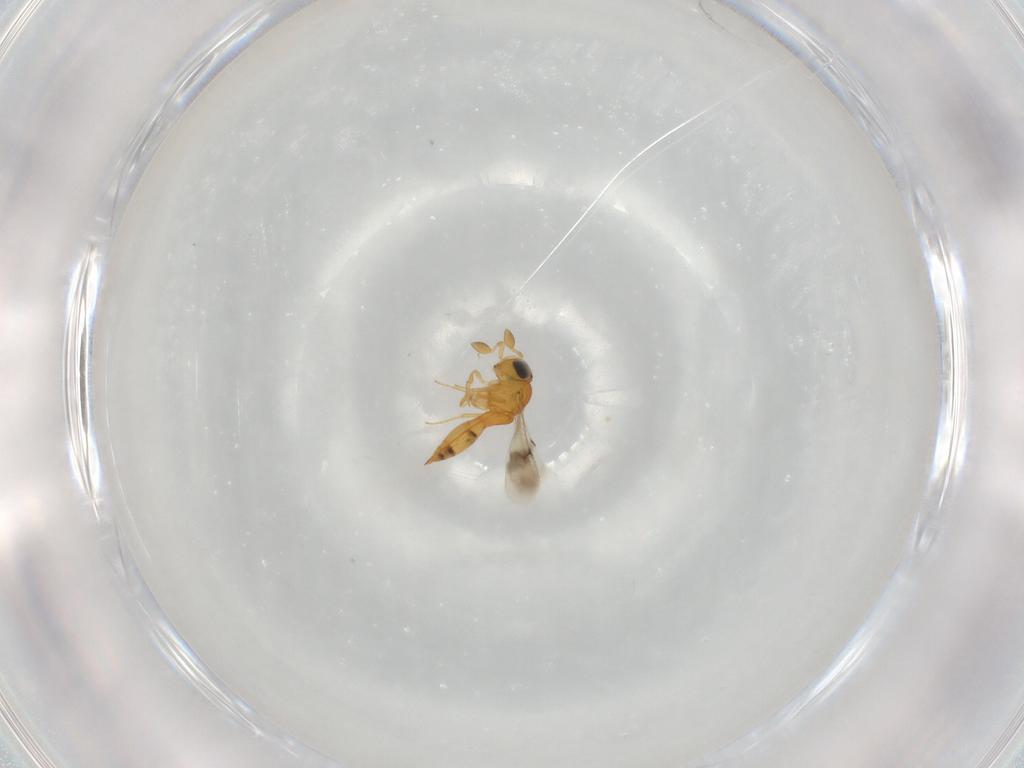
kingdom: Animalia
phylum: Arthropoda
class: Insecta
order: Hymenoptera
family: Scelionidae
